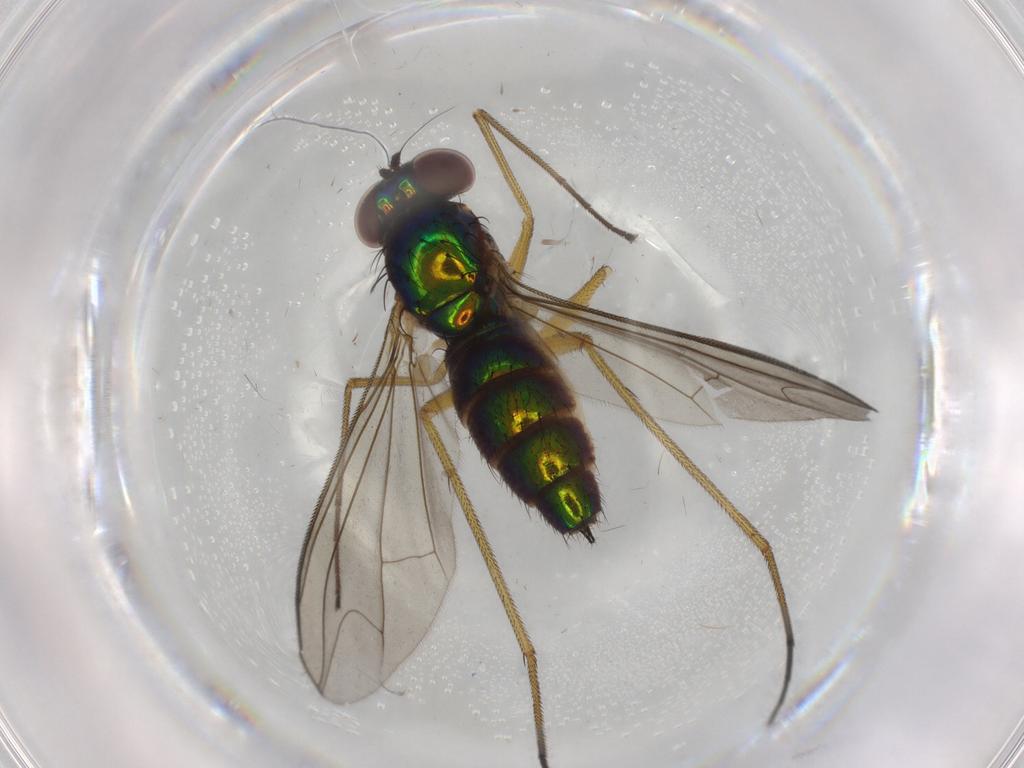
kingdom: Animalia
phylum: Arthropoda
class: Insecta
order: Diptera
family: Dolichopodidae
